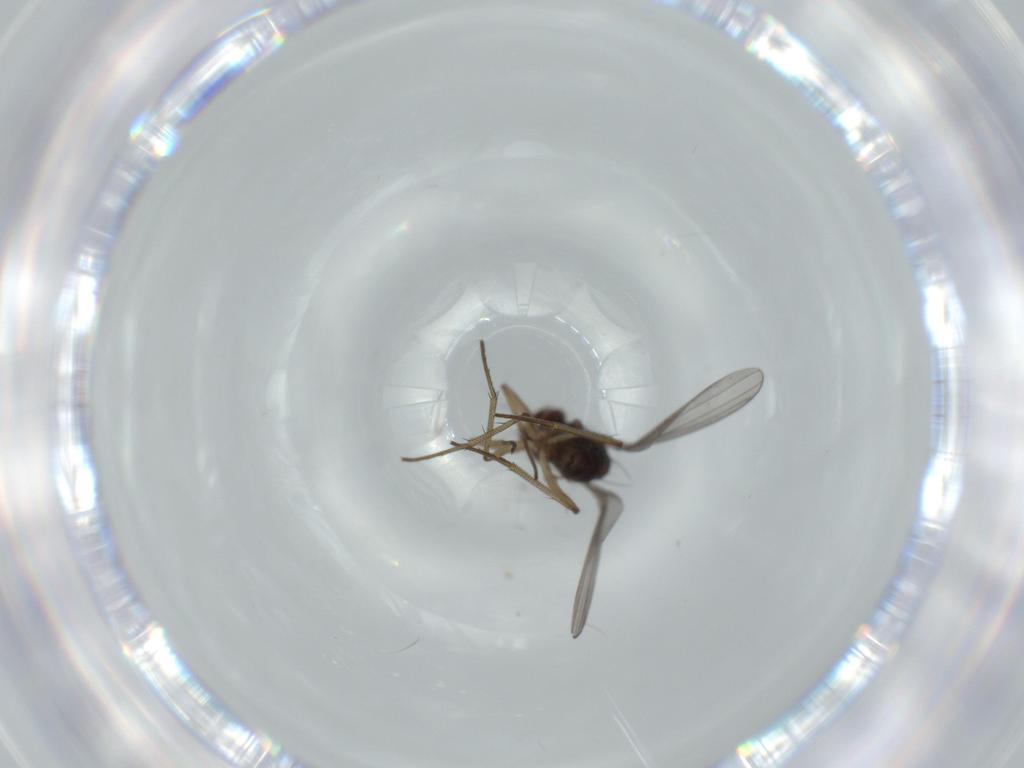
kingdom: Animalia
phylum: Arthropoda
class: Insecta
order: Diptera
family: Dolichopodidae
